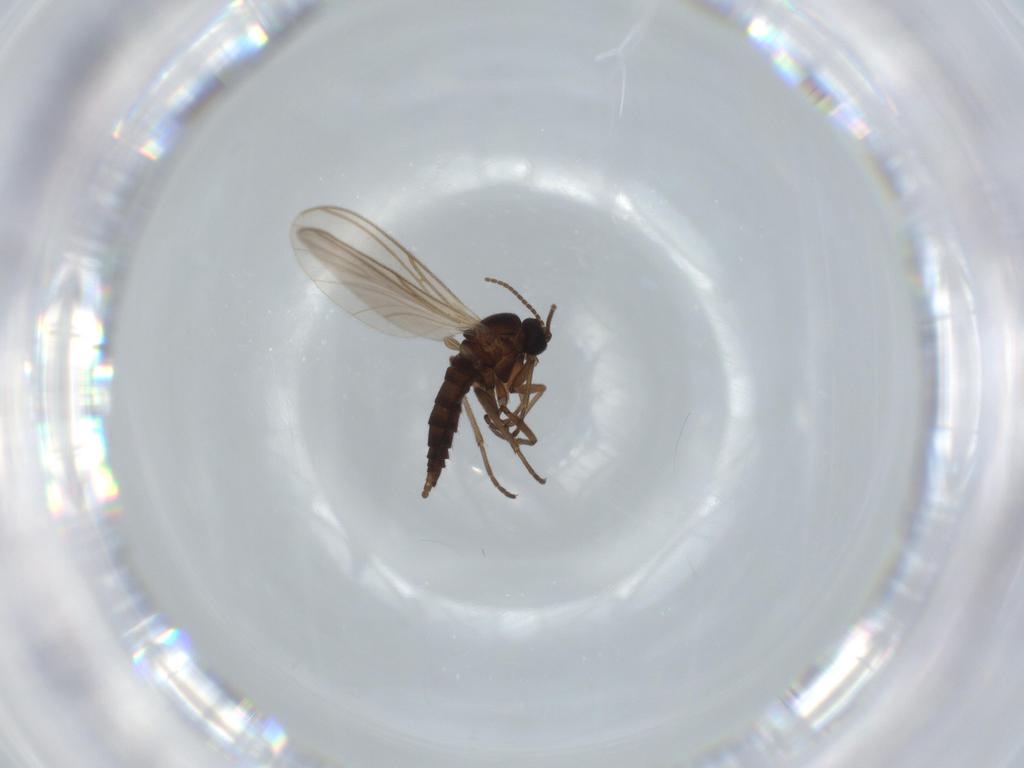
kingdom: Animalia
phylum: Arthropoda
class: Insecta
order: Diptera
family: Sciaridae
